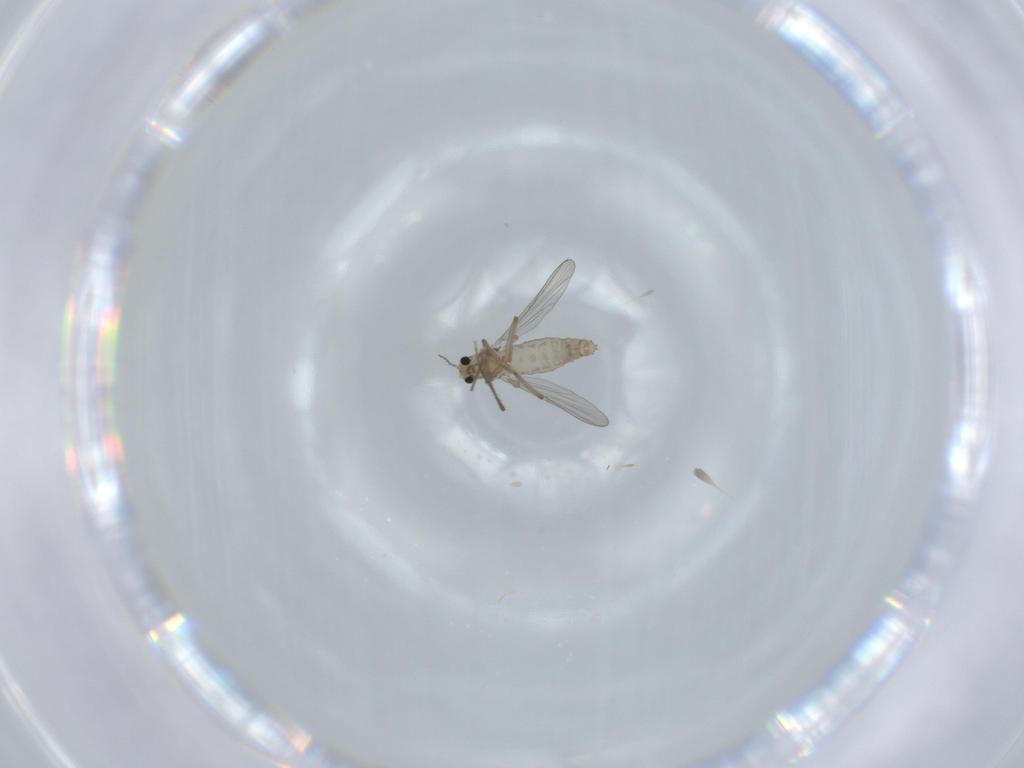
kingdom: Animalia
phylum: Arthropoda
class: Insecta
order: Diptera
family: Chironomidae
